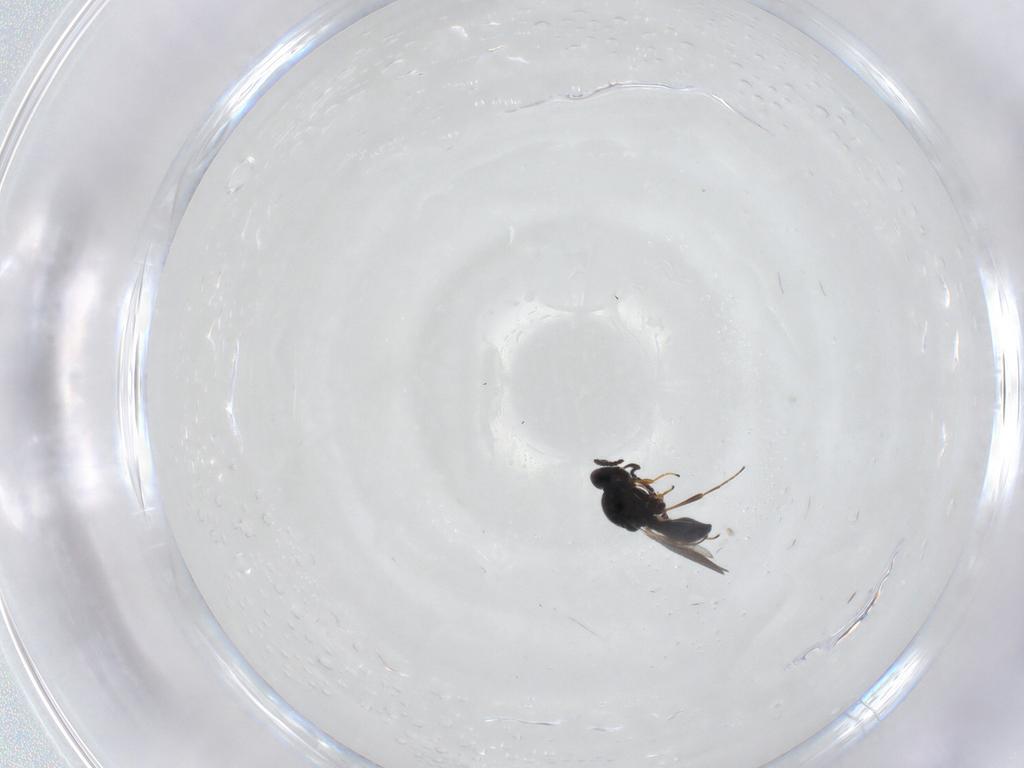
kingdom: Animalia
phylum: Arthropoda
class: Insecta
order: Hymenoptera
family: Platygastridae
